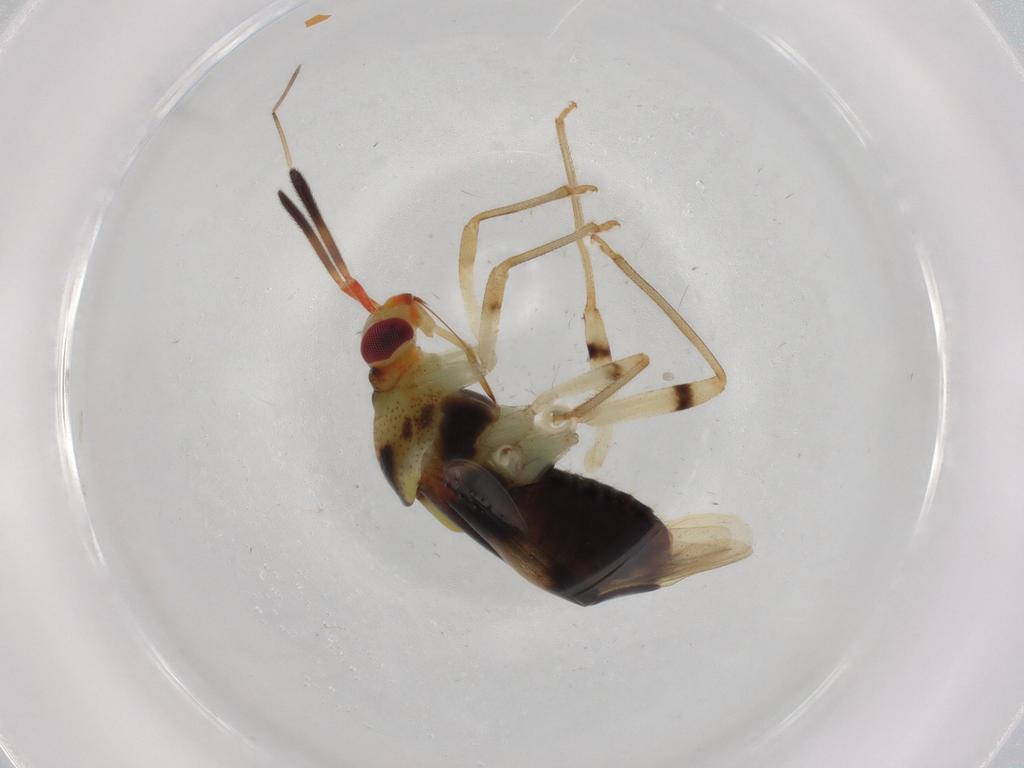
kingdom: Animalia
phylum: Arthropoda
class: Insecta
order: Hemiptera
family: Miridae
